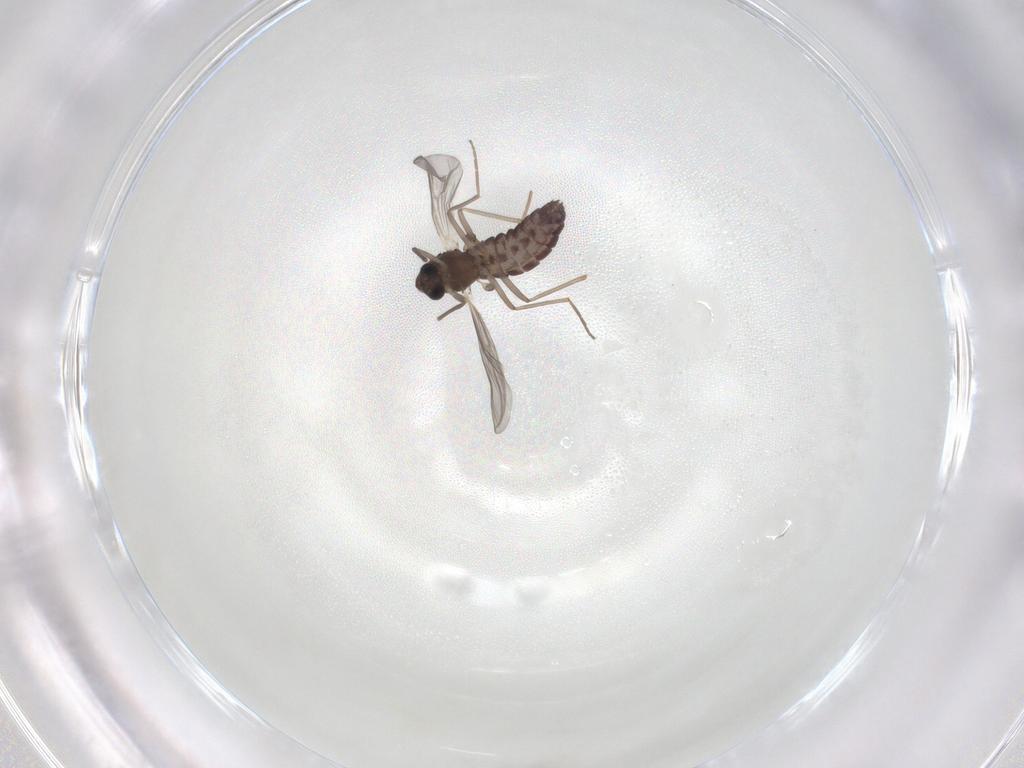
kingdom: Animalia
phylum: Arthropoda
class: Insecta
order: Diptera
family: Chironomidae
